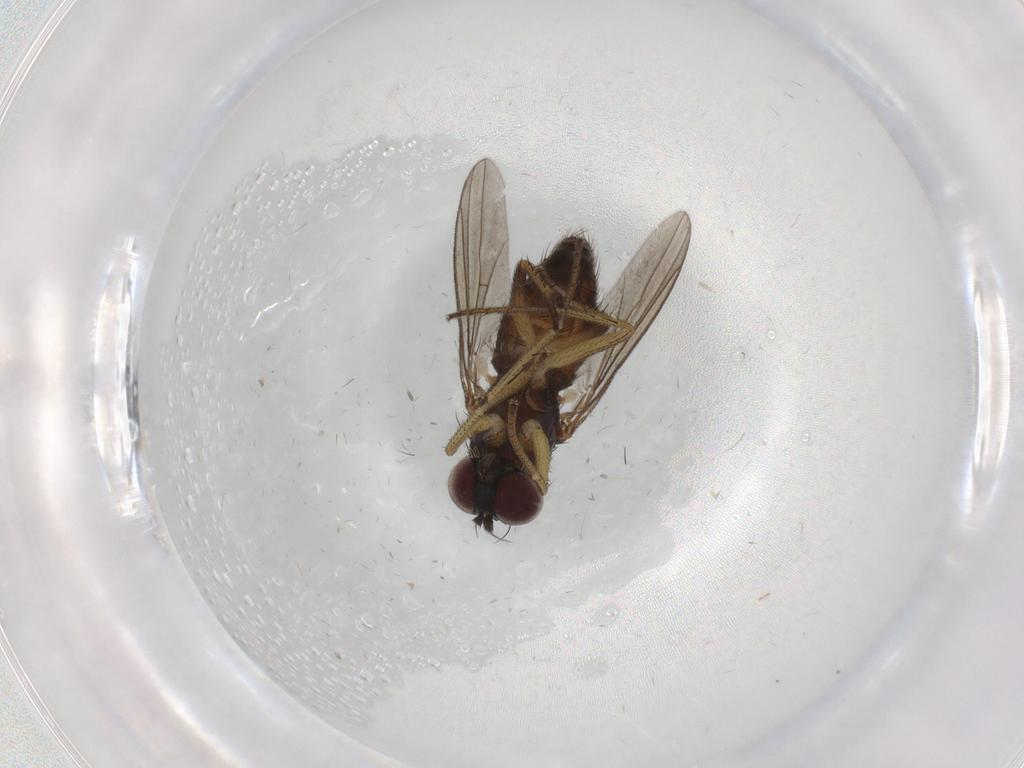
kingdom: Animalia
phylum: Arthropoda
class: Insecta
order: Diptera
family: Dolichopodidae
